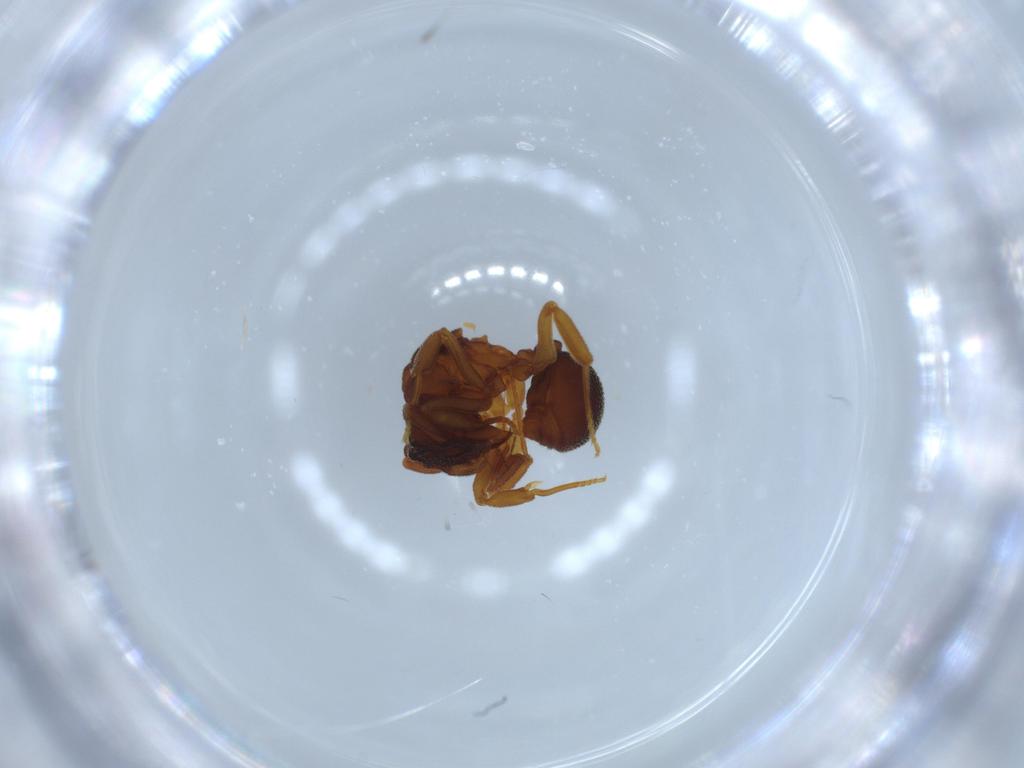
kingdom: Animalia
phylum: Arthropoda
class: Insecta
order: Hymenoptera
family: Formicidae
